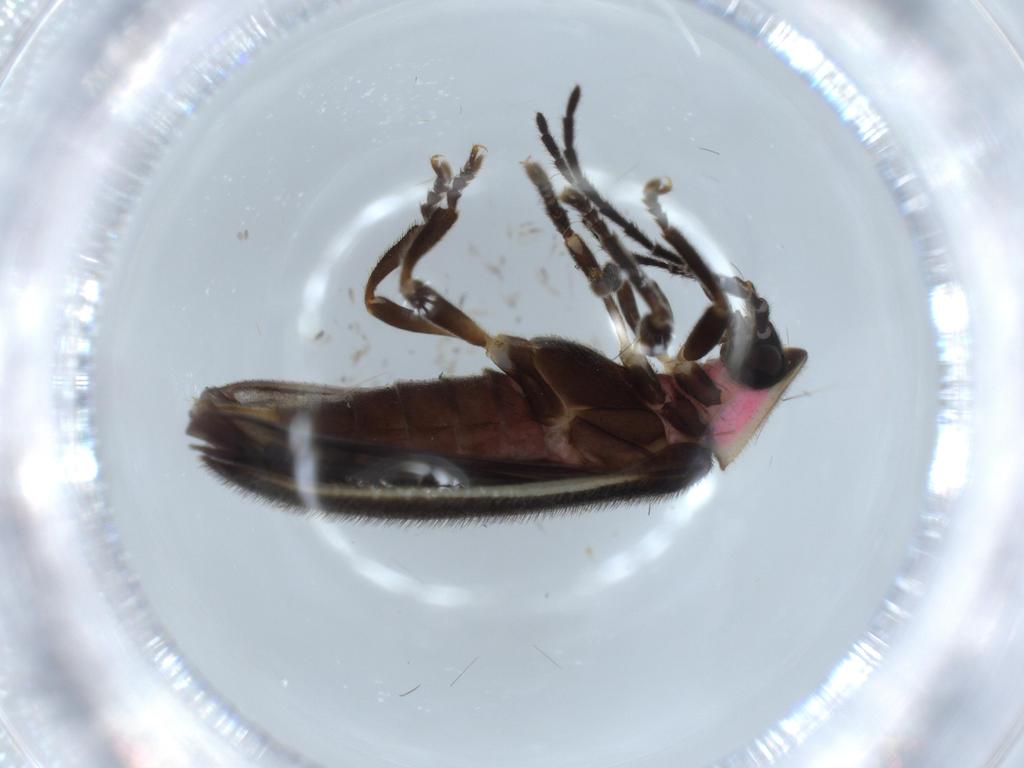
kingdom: Animalia
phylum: Arthropoda
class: Insecta
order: Coleoptera
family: Lampyridae
